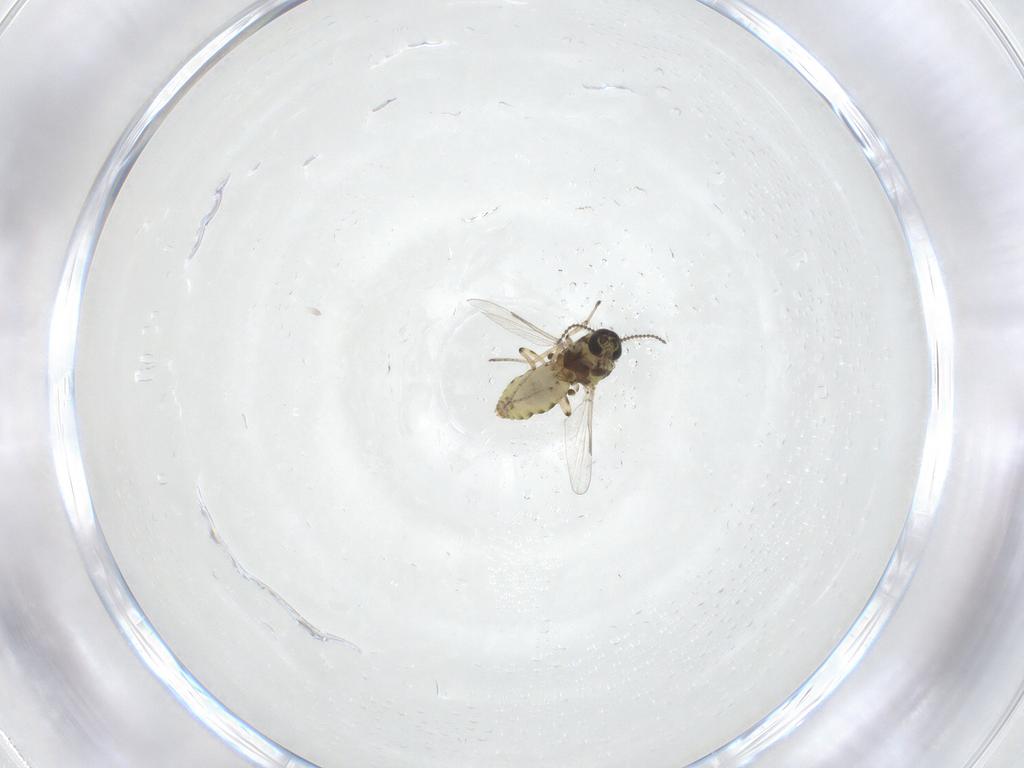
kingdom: Animalia
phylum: Arthropoda
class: Insecta
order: Diptera
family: Ceratopogonidae
